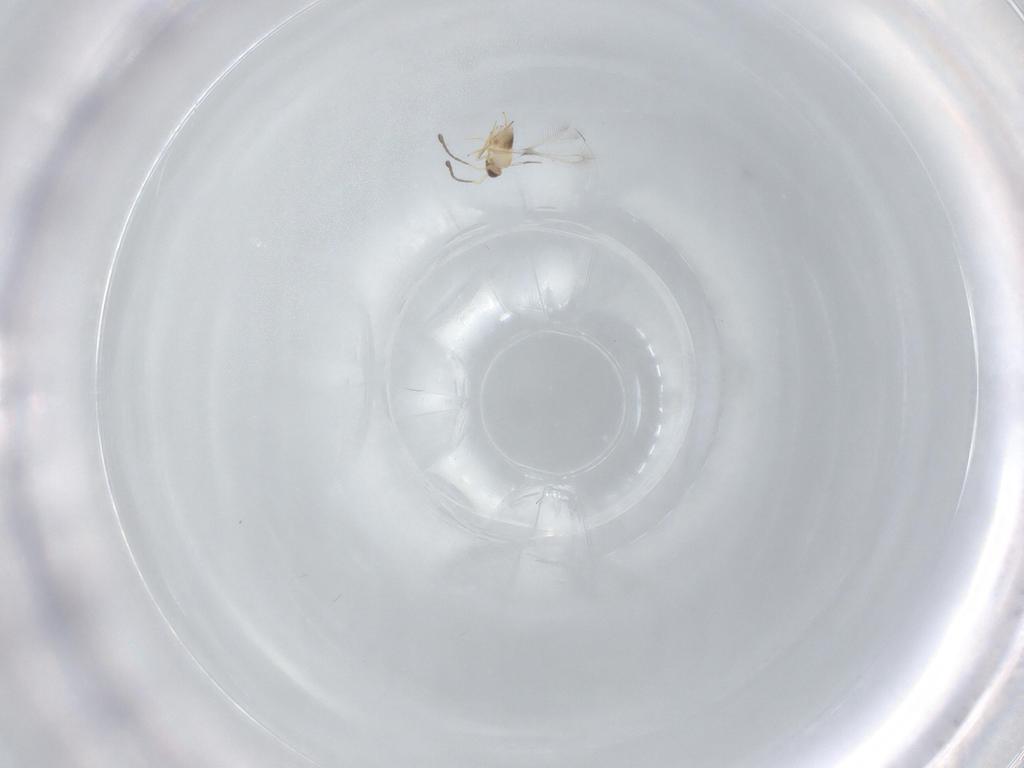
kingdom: Animalia
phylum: Arthropoda
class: Insecta
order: Hymenoptera
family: Mymaridae
